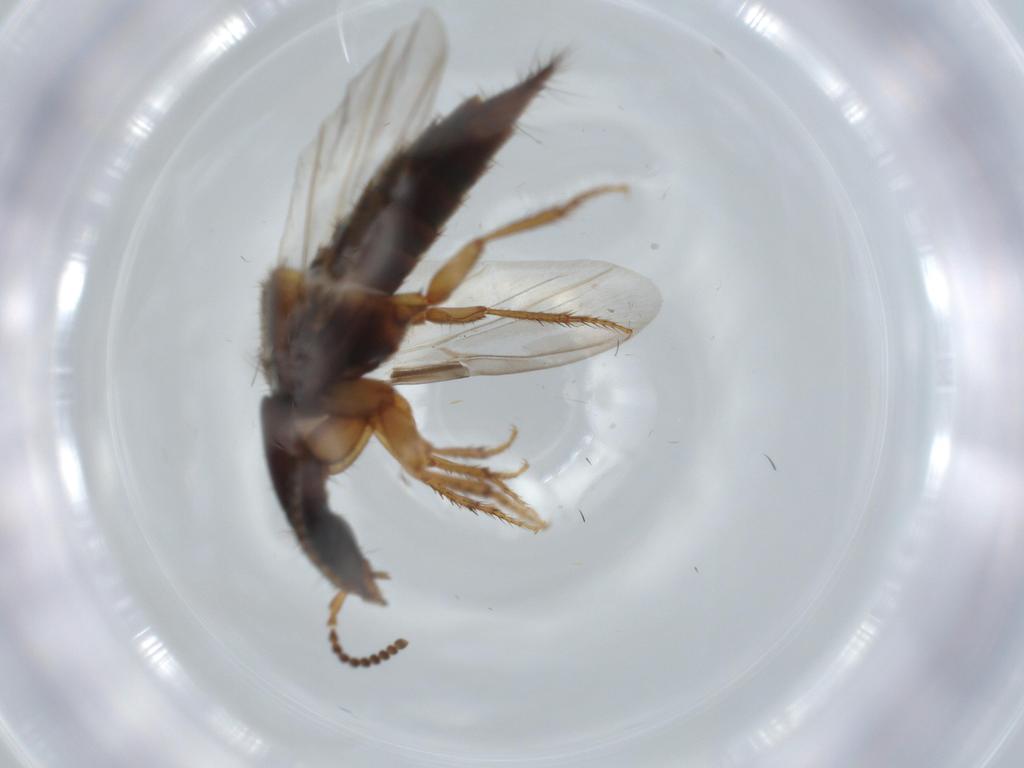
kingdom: Animalia
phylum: Arthropoda
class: Insecta
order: Coleoptera
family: Staphylinidae
